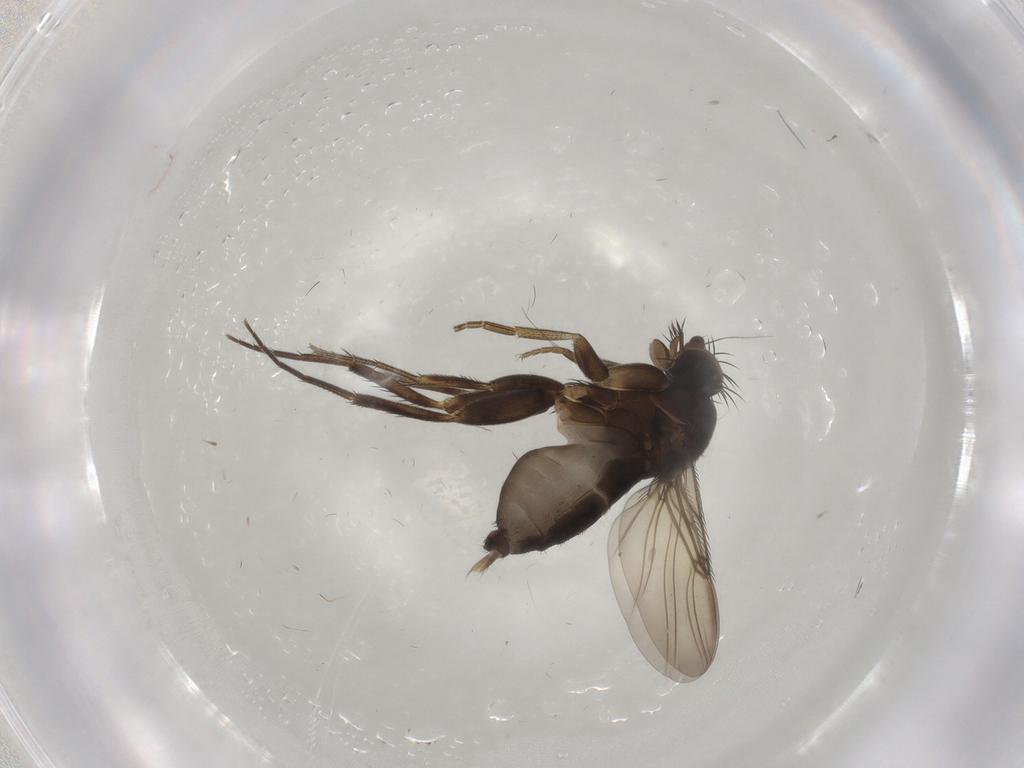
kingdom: Animalia
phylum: Arthropoda
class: Insecta
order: Diptera
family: Phoridae
